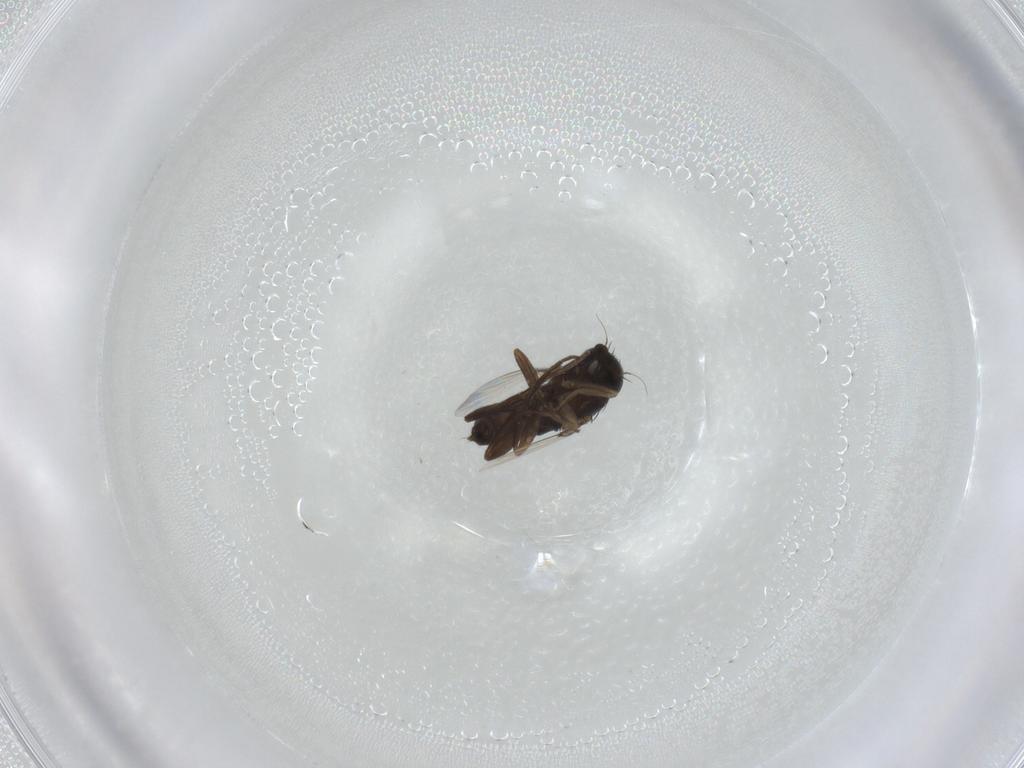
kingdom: Animalia
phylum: Arthropoda
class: Insecta
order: Diptera
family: Phoridae
